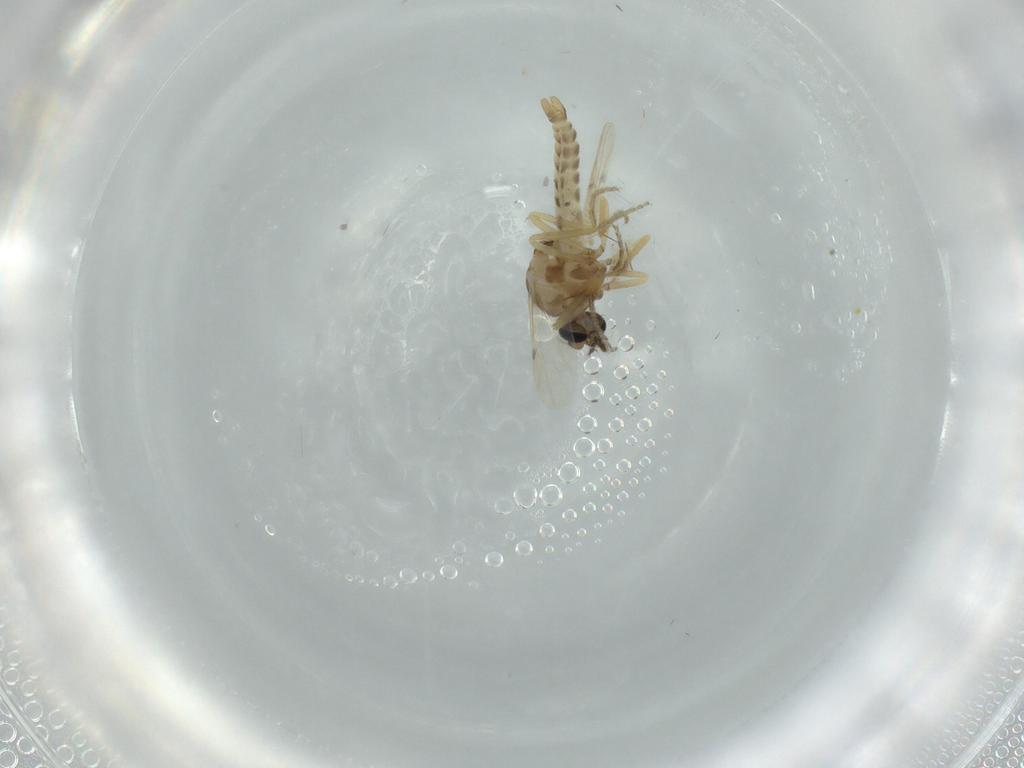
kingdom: Animalia
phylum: Arthropoda
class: Insecta
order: Diptera
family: Ceratopogonidae
